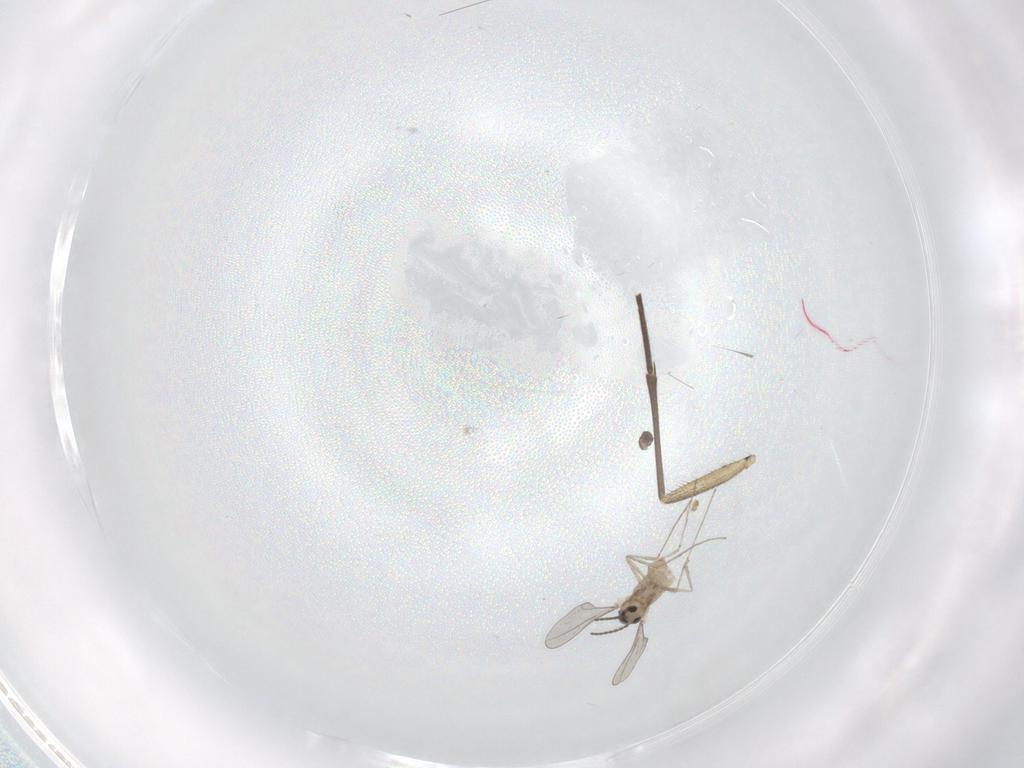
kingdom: Animalia
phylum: Arthropoda
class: Insecta
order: Diptera
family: Cecidomyiidae
